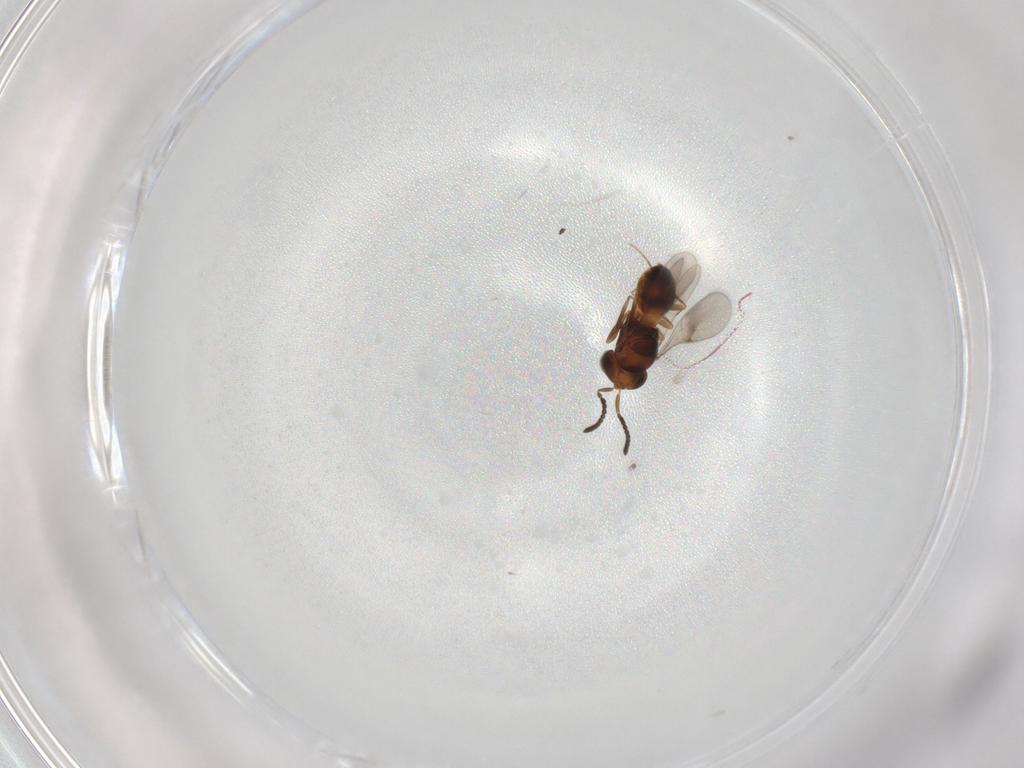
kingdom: Animalia
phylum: Arthropoda
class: Insecta
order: Hymenoptera
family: Scelionidae
